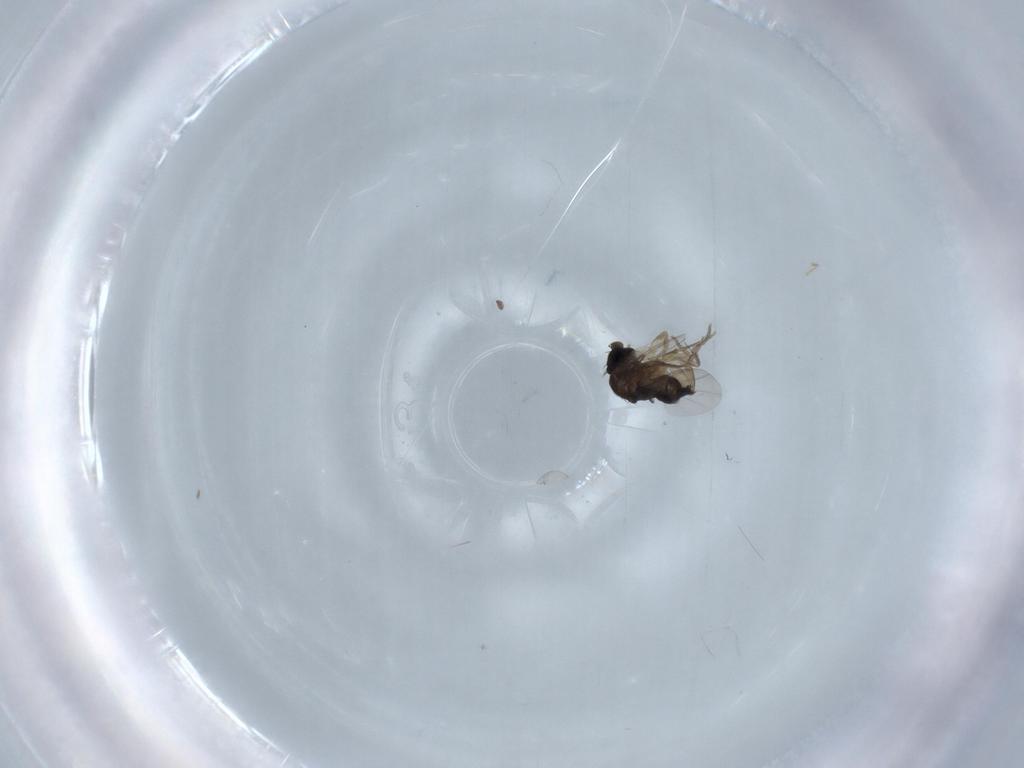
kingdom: Animalia
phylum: Arthropoda
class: Insecta
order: Diptera
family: Phoridae
